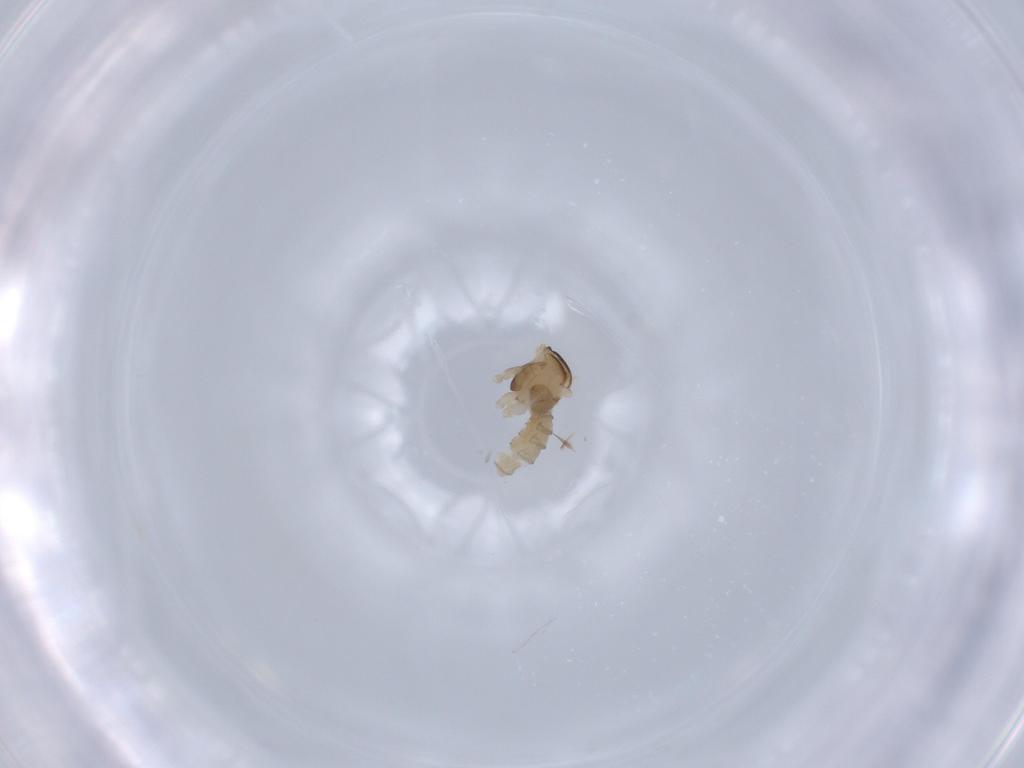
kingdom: Animalia
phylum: Arthropoda
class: Insecta
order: Diptera
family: Cecidomyiidae
